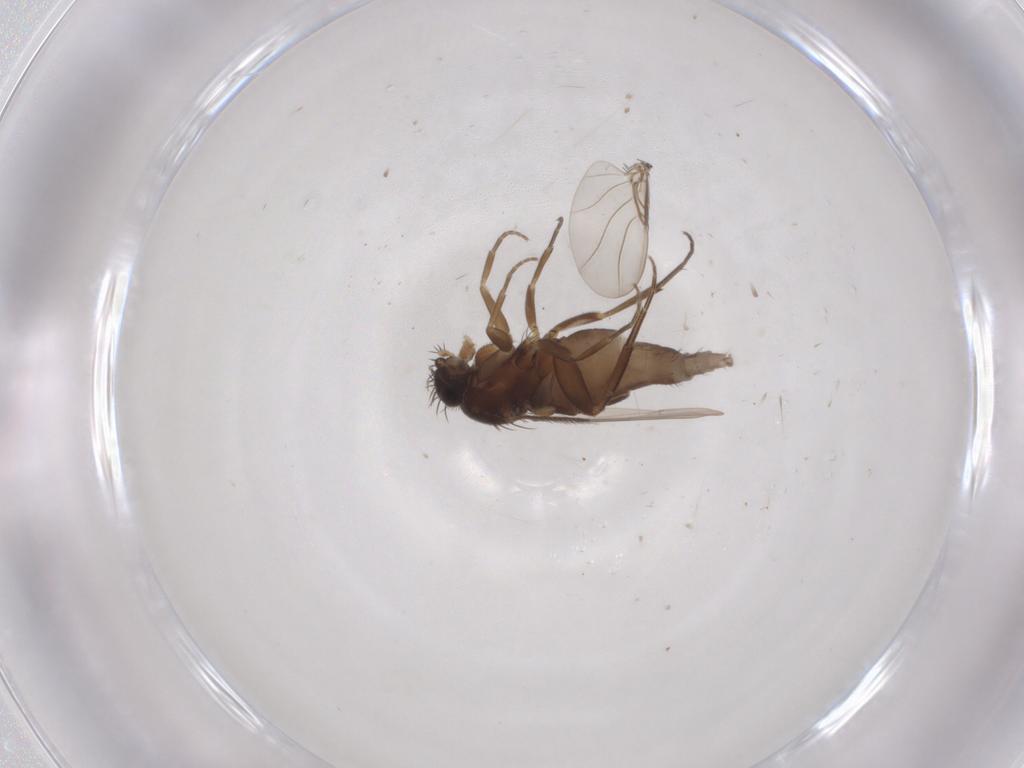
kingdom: Animalia
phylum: Arthropoda
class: Insecta
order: Diptera
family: Phoridae
